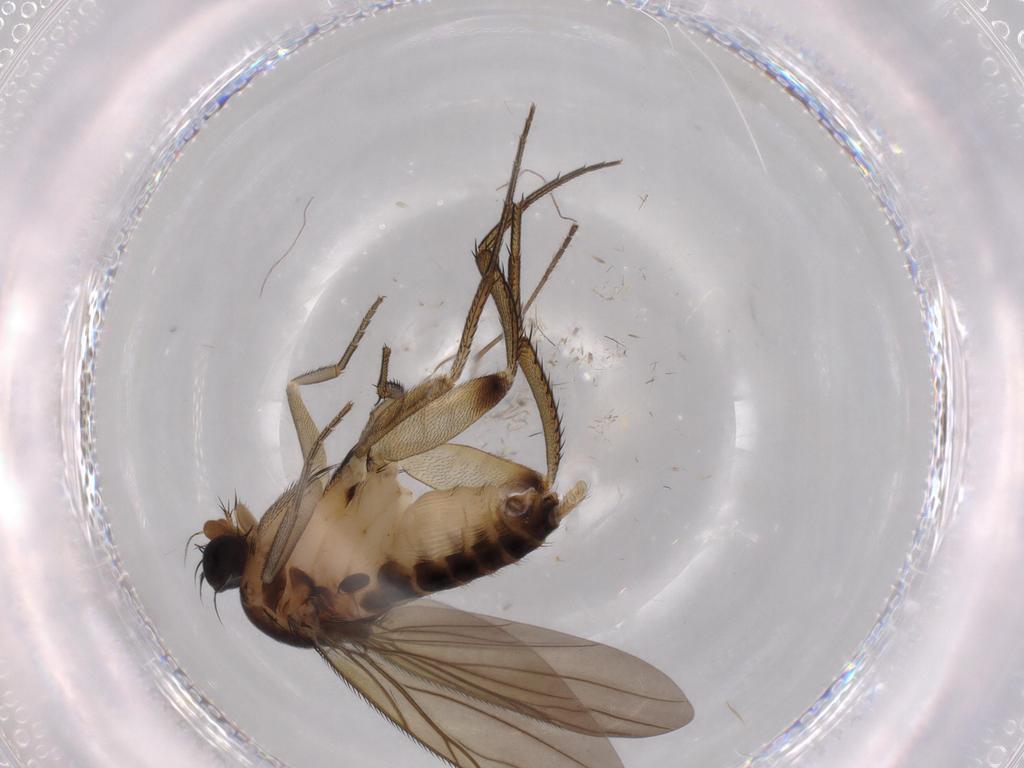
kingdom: Animalia
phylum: Arthropoda
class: Insecta
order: Diptera
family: Phoridae
